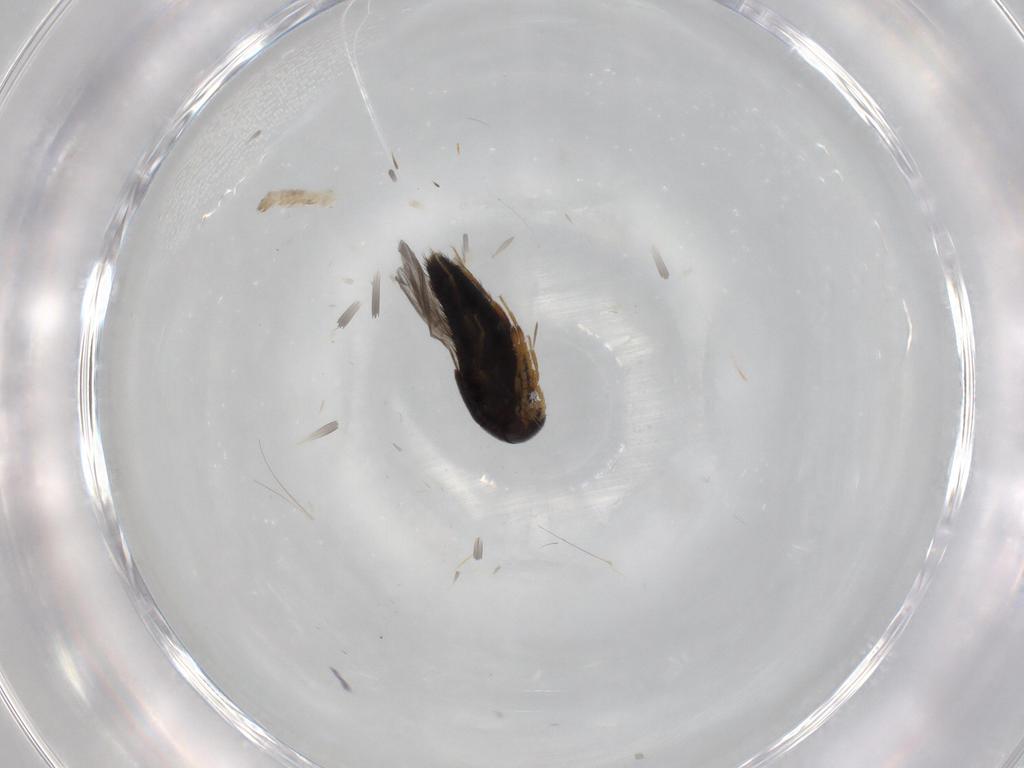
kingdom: Animalia
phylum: Arthropoda
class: Insecta
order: Coleoptera
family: Staphylinidae
